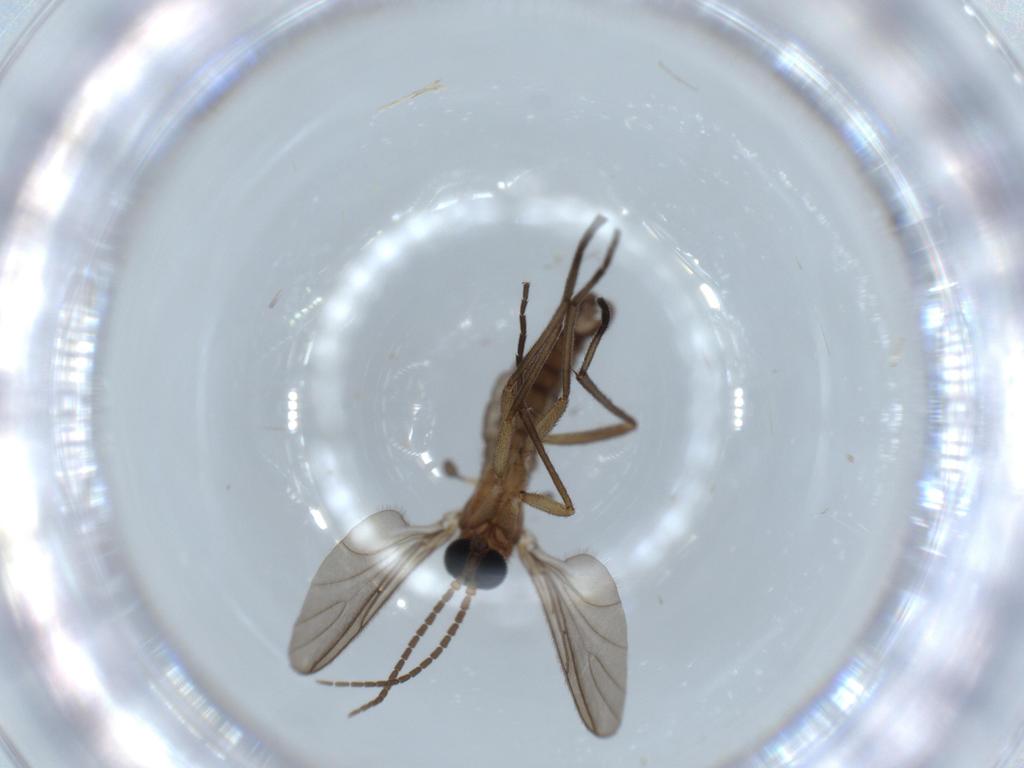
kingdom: Animalia
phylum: Arthropoda
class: Insecta
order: Diptera
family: Sciaridae
